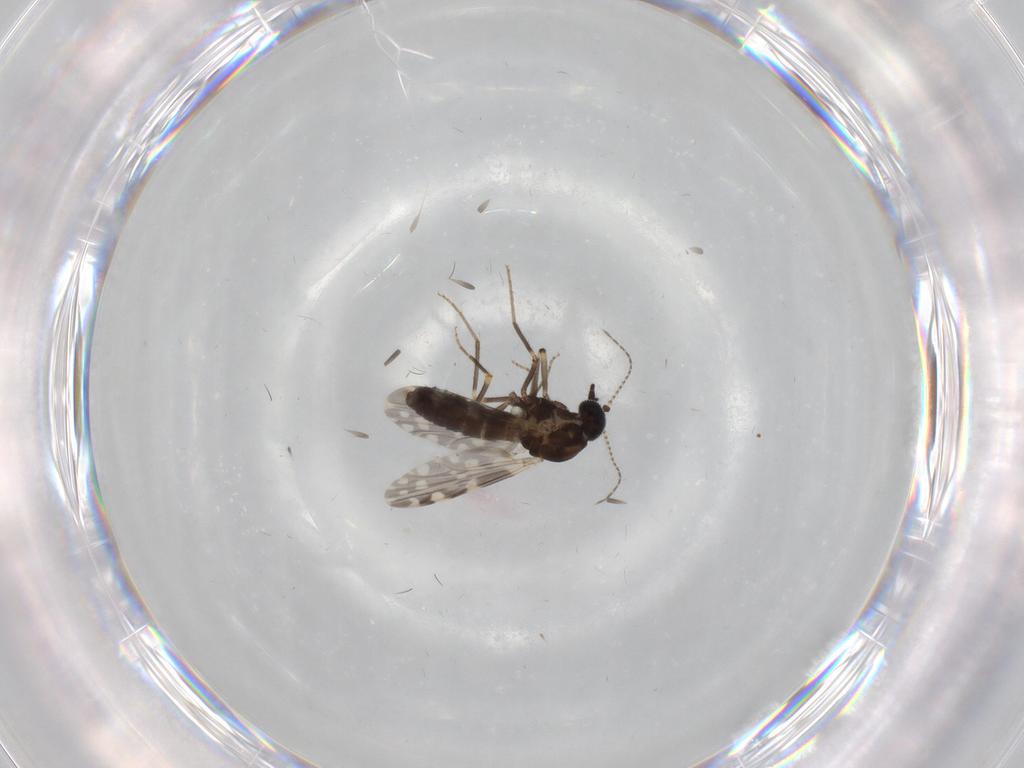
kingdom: Animalia
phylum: Arthropoda
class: Insecta
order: Diptera
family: Ceratopogonidae
